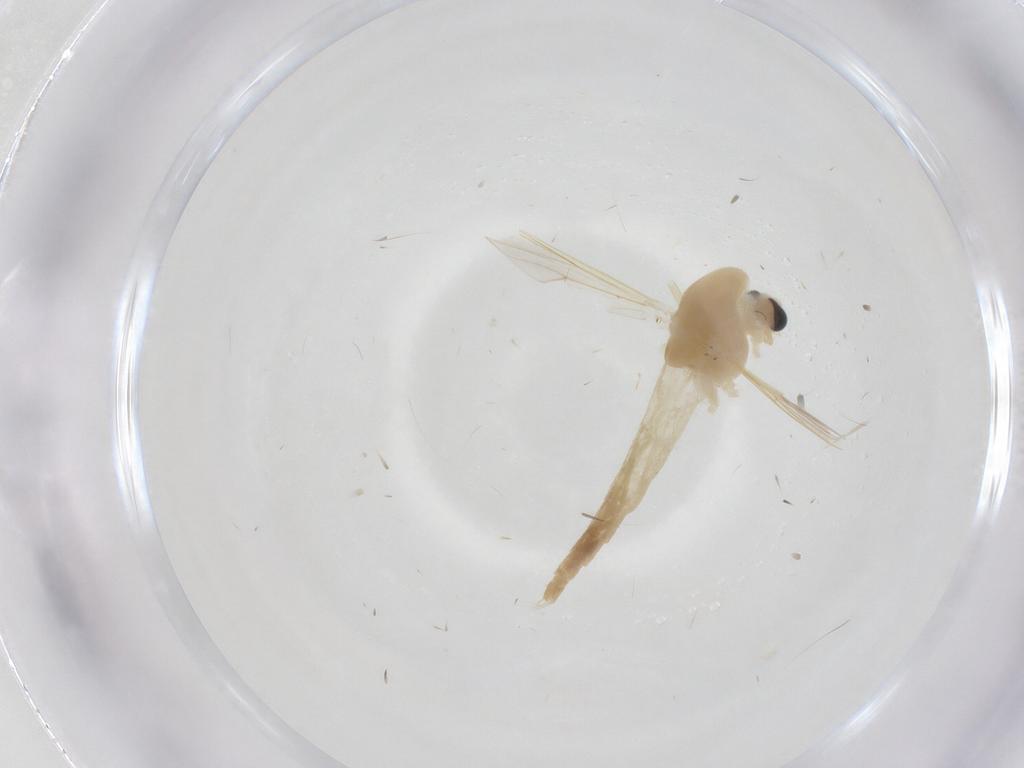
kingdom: Animalia
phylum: Arthropoda
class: Insecta
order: Diptera
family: Chironomidae
